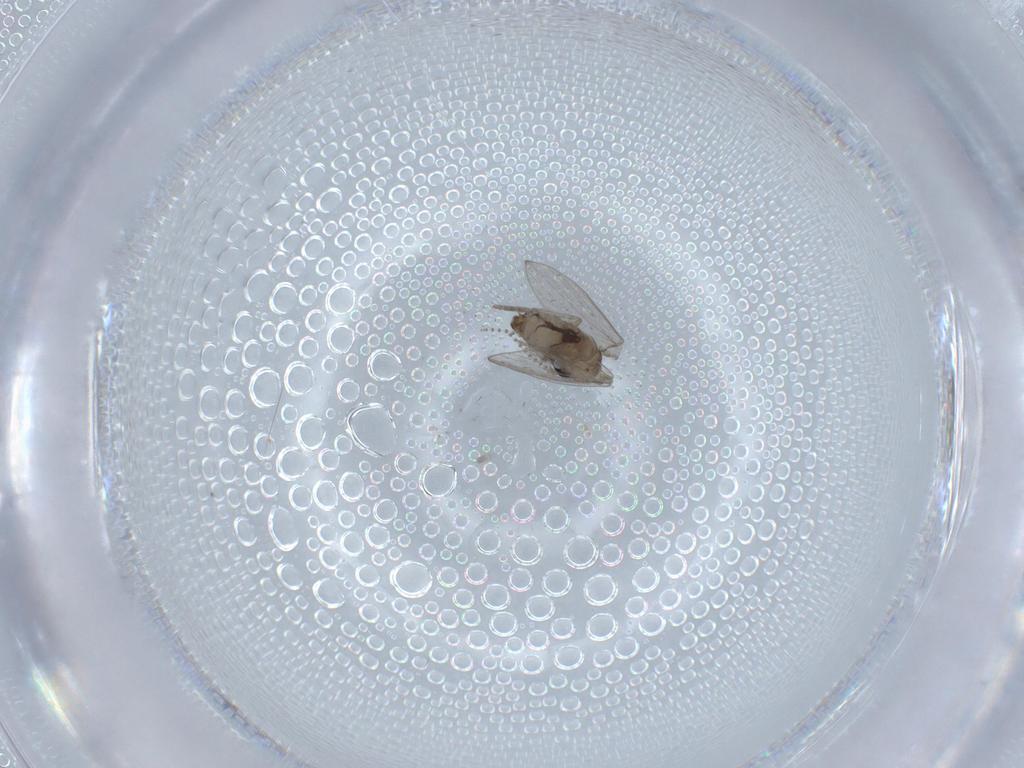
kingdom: Animalia
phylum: Arthropoda
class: Insecta
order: Diptera
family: Psychodidae
